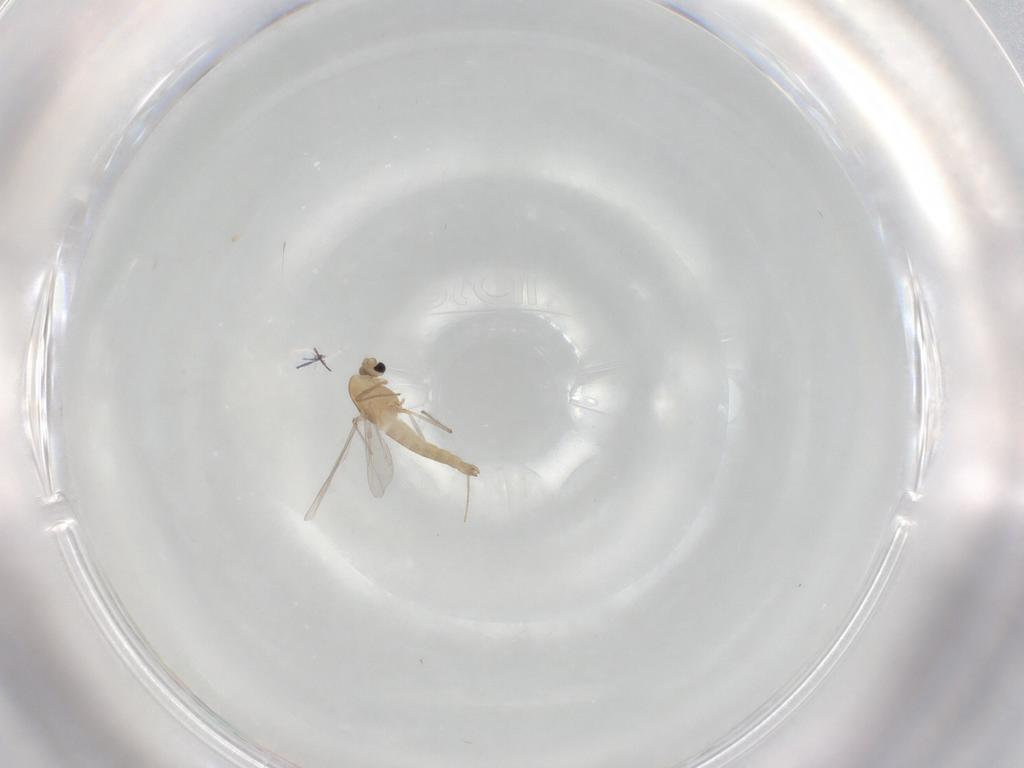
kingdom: Animalia
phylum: Arthropoda
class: Insecta
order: Diptera
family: Chironomidae
